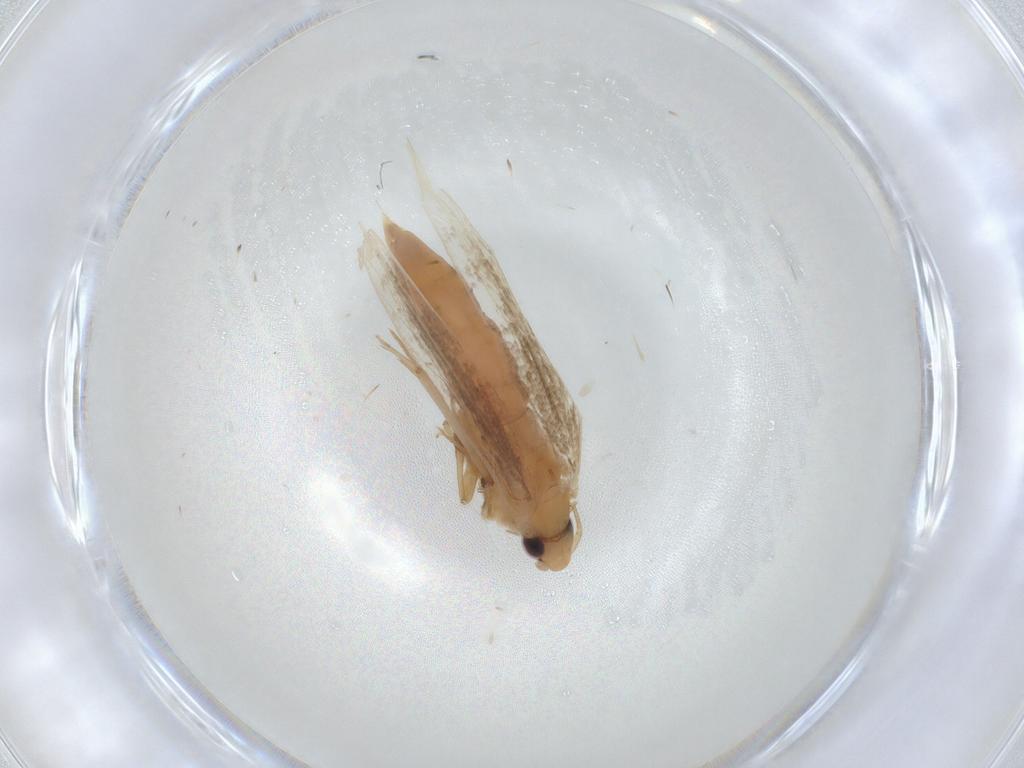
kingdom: Animalia
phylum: Arthropoda
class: Insecta
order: Lepidoptera
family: Tineidae
